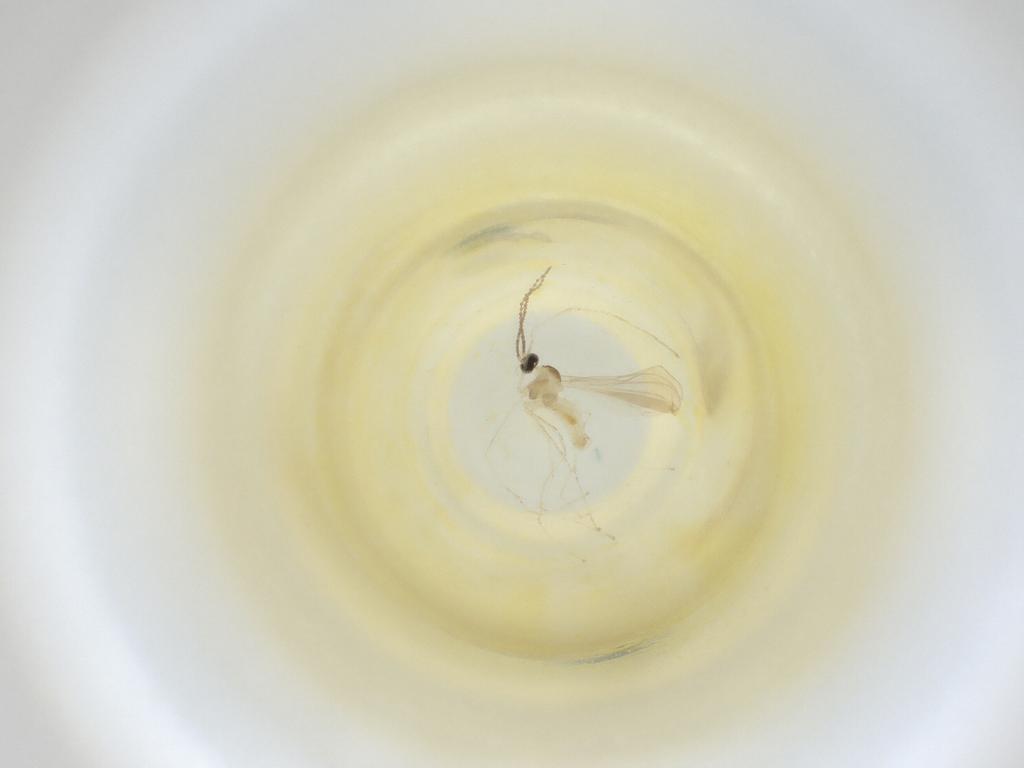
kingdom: Animalia
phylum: Arthropoda
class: Insecta
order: Diptera
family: Cecidomyiidae
